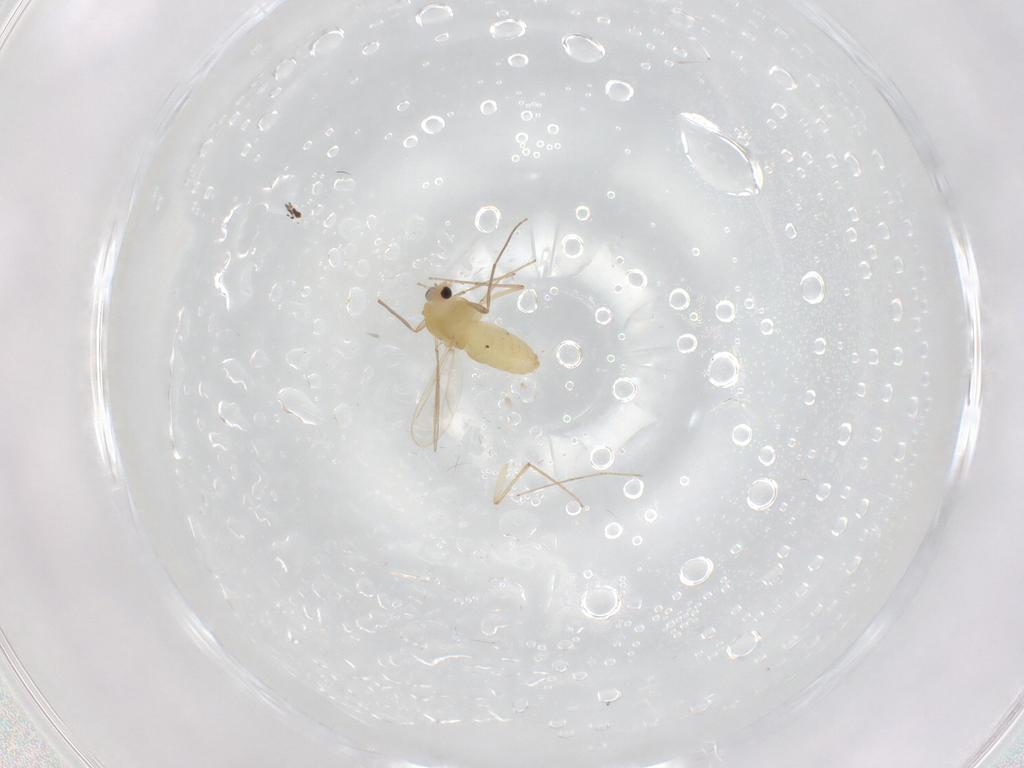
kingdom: Animalia
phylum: Arthropoda
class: Insecta
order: Diptera
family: Chironomidae
